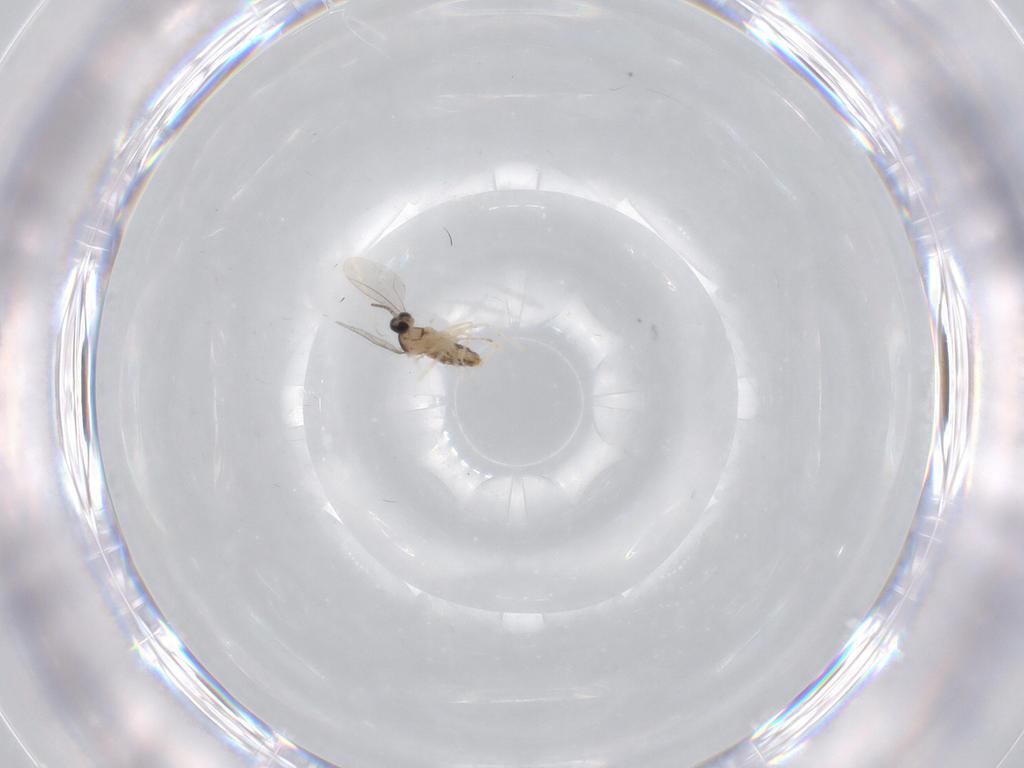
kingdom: Animalia
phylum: Arthropoda
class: Insecta
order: Diptera
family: Cecidomyiidae
